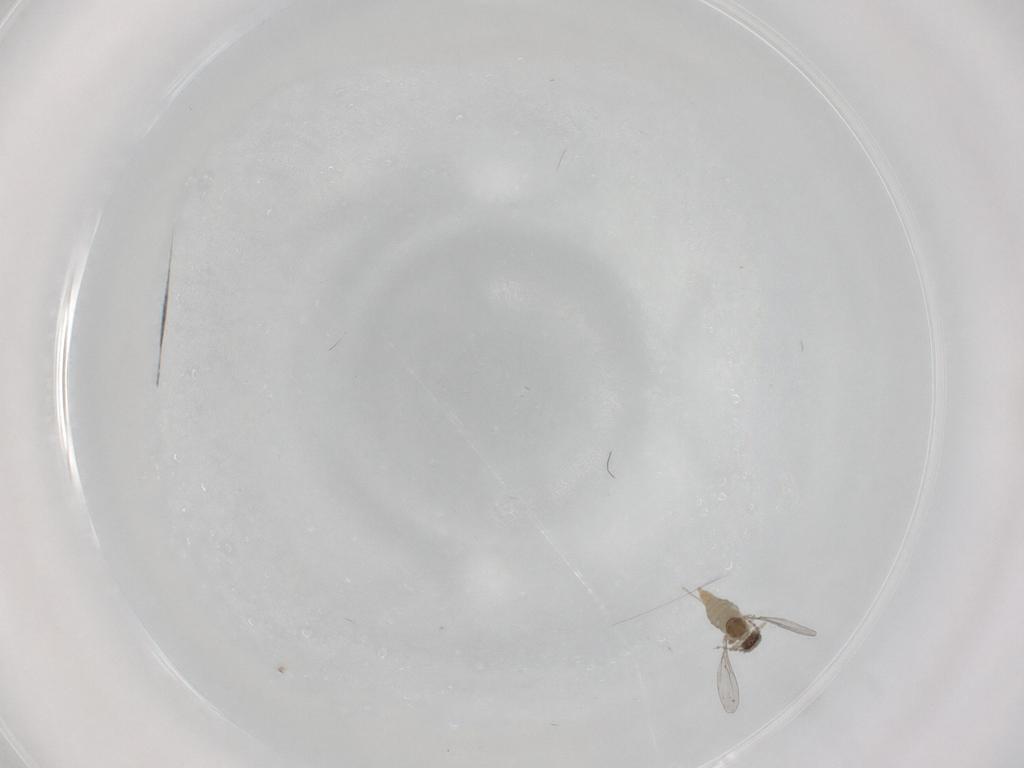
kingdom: Animalia
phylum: Arthropoda
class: Insecta
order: Diptera
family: Cecidomyiidae
